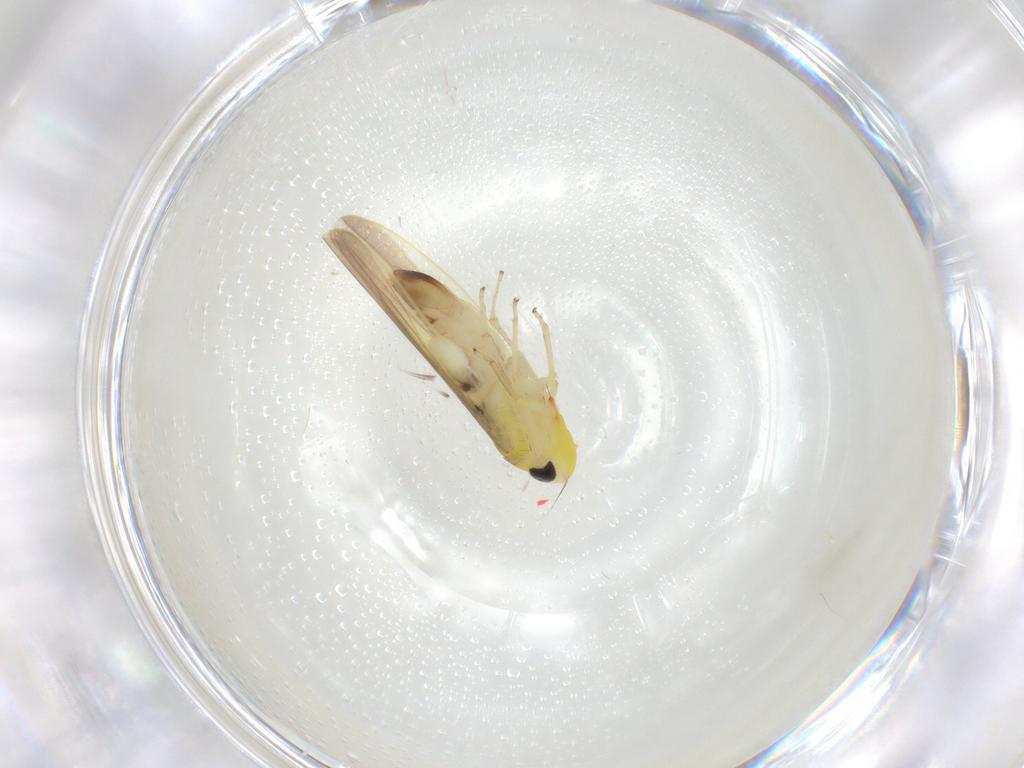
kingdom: Animalia
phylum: Arthropoda
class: Insecta
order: Hemiptera
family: Cicadellidae
